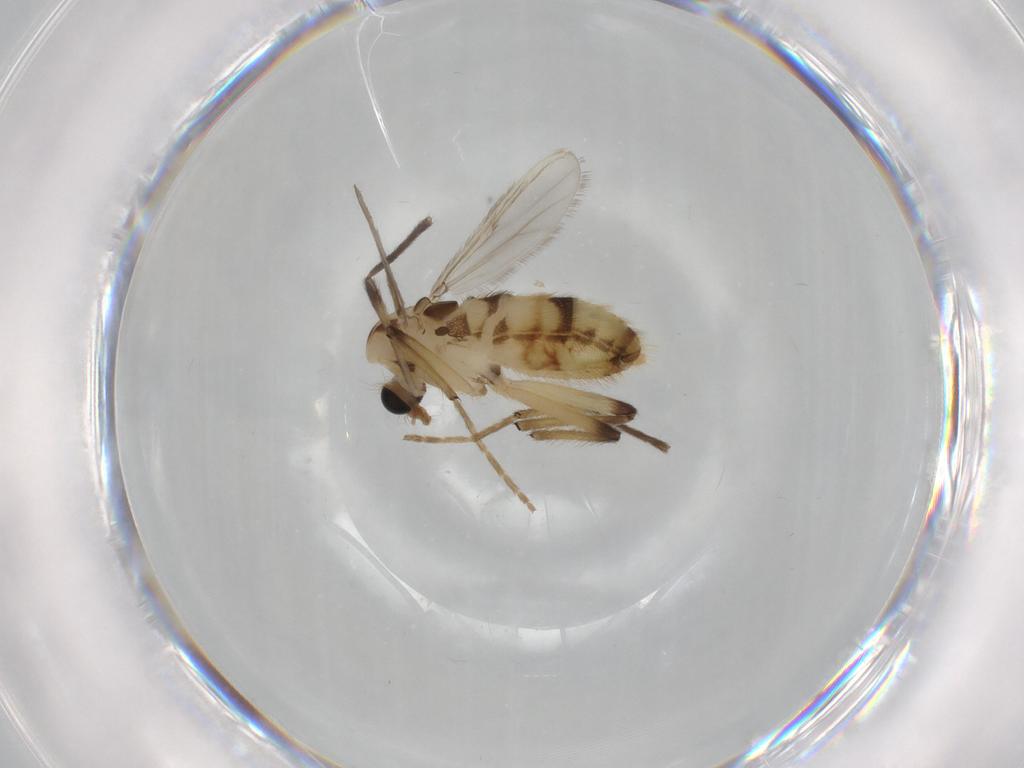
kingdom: Animalia
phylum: Arthropoda
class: Insecta
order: Diptera
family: Chironomidae
